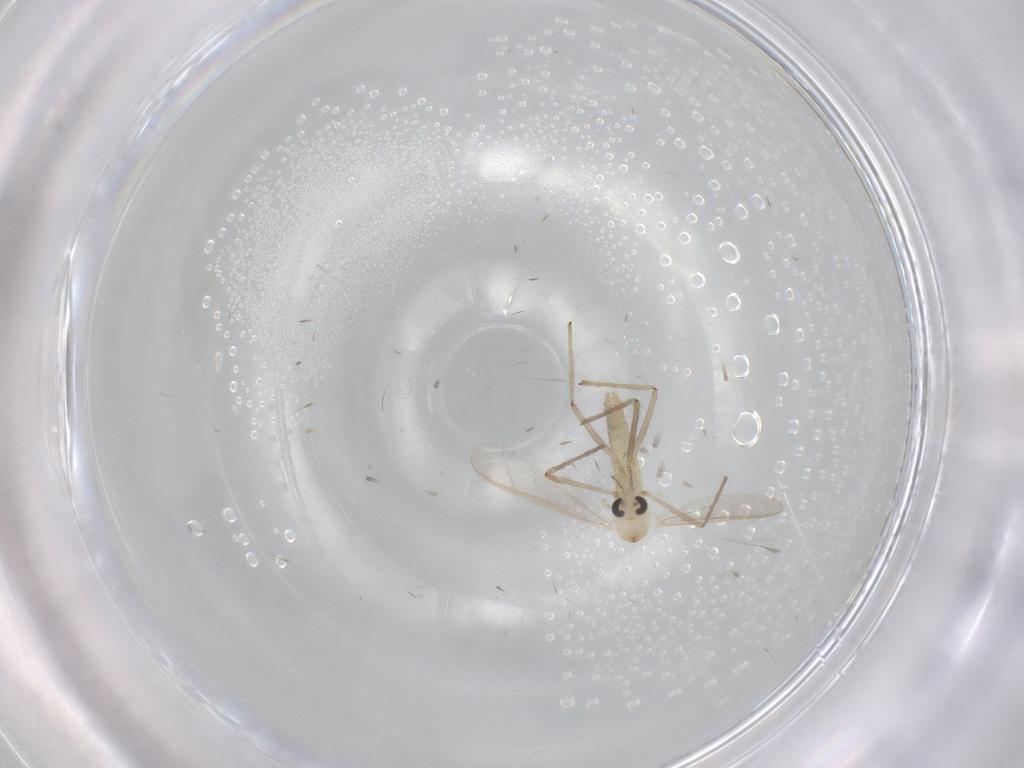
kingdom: Animalia
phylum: Arthropoda
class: Insecta
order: Diptera
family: Chironomidae
